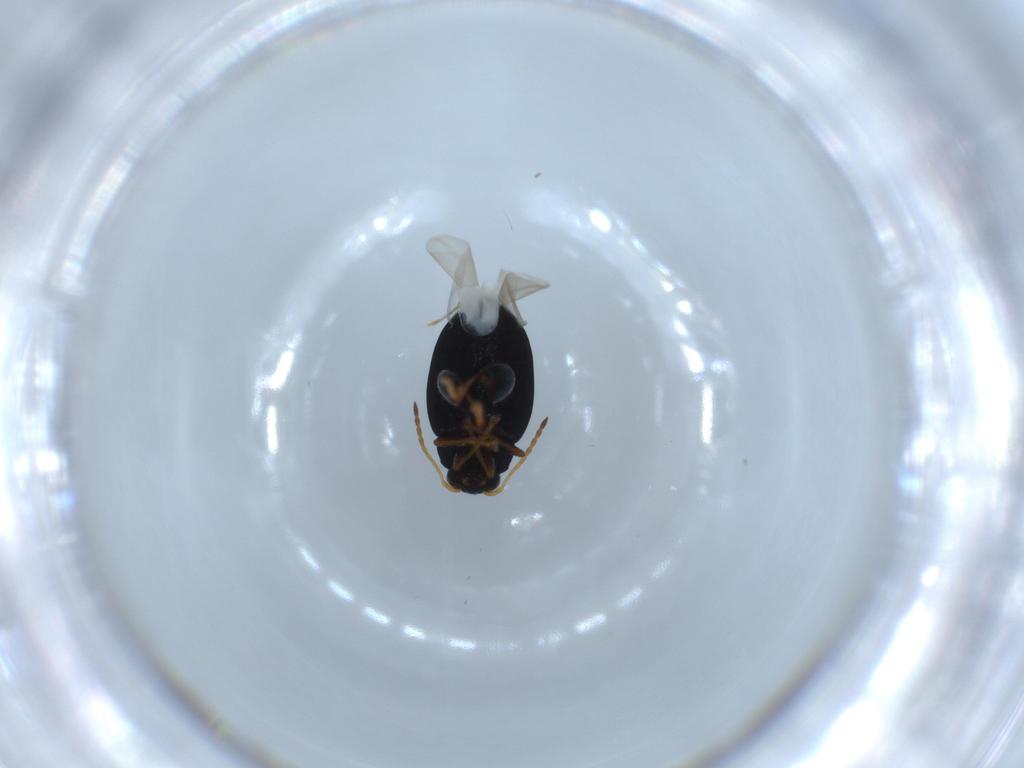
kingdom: Animalia
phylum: Arthropoda
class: Insecta
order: Coleoptera
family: Chrysomelidae
